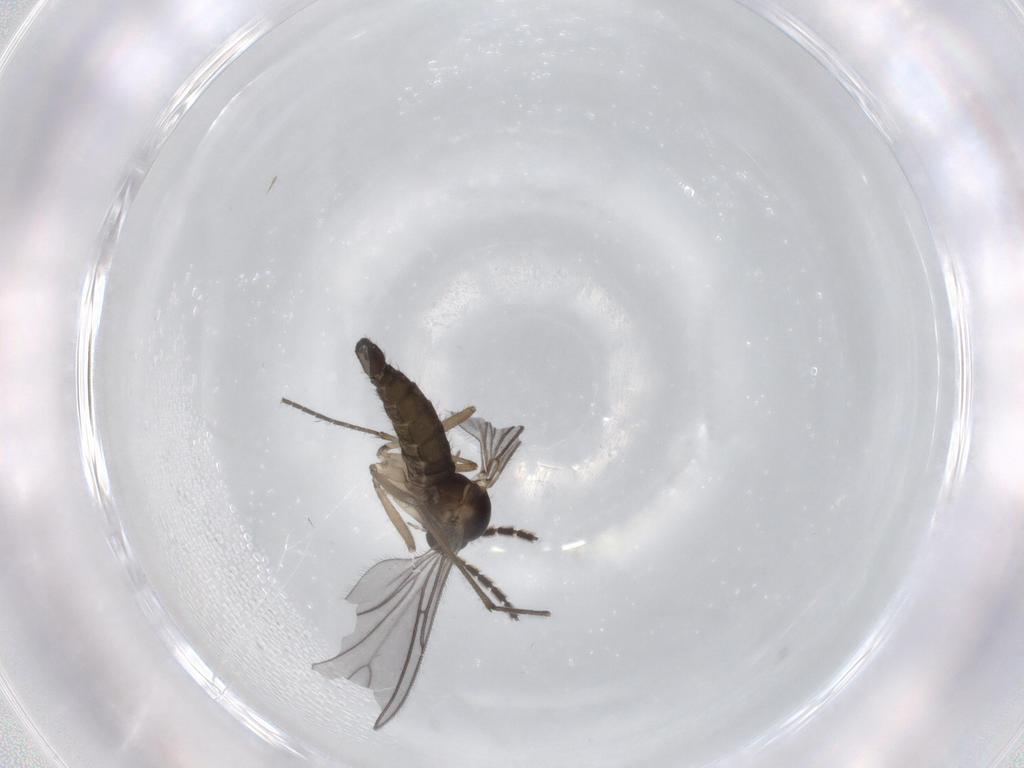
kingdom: Animalia
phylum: Arthropoda
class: Insecta
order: Diptera
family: Sciaridae
